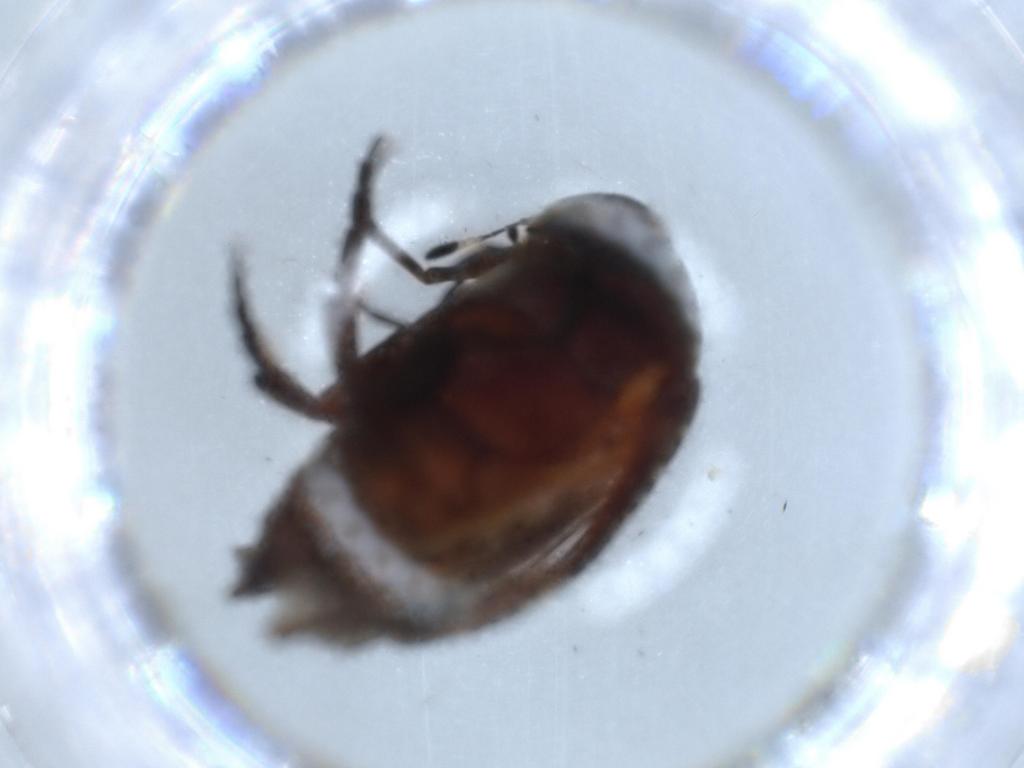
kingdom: Animalia
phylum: Arthropoda
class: Insecta
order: Coleoptera
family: Chrysomelidae
